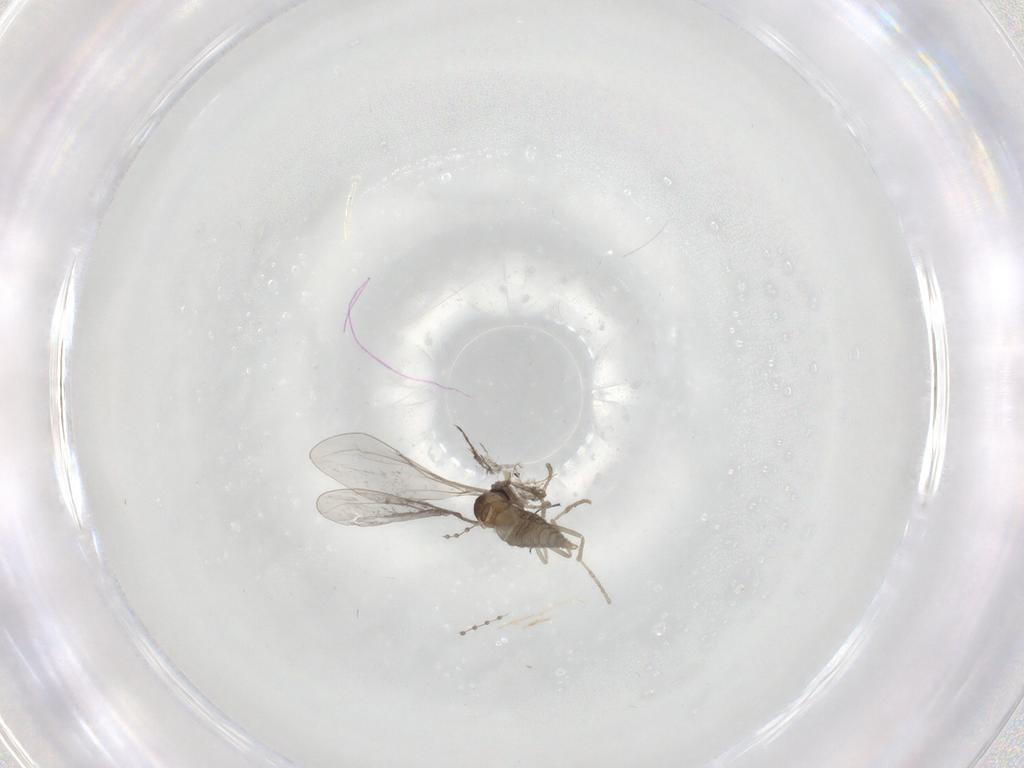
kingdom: Animalia
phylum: Arthropoda
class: Insecta
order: Diptera
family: Cecidomyiidae
